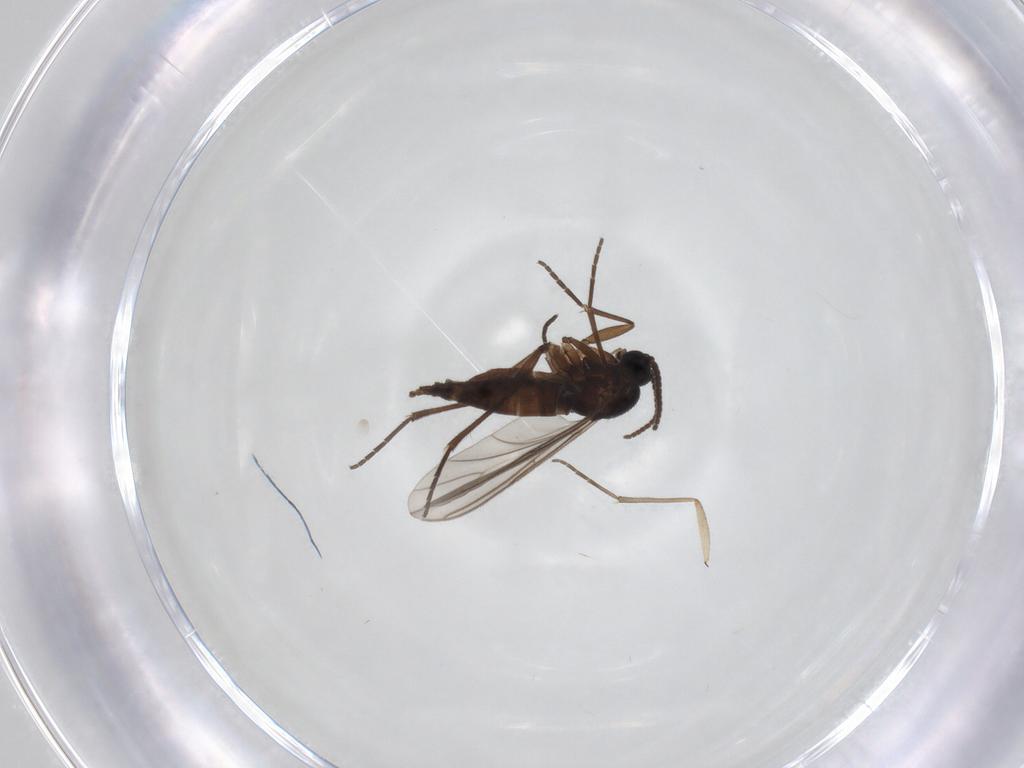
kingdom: Animalia
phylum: Arthropoda
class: Insecta
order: Diptera
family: Sciaridae
